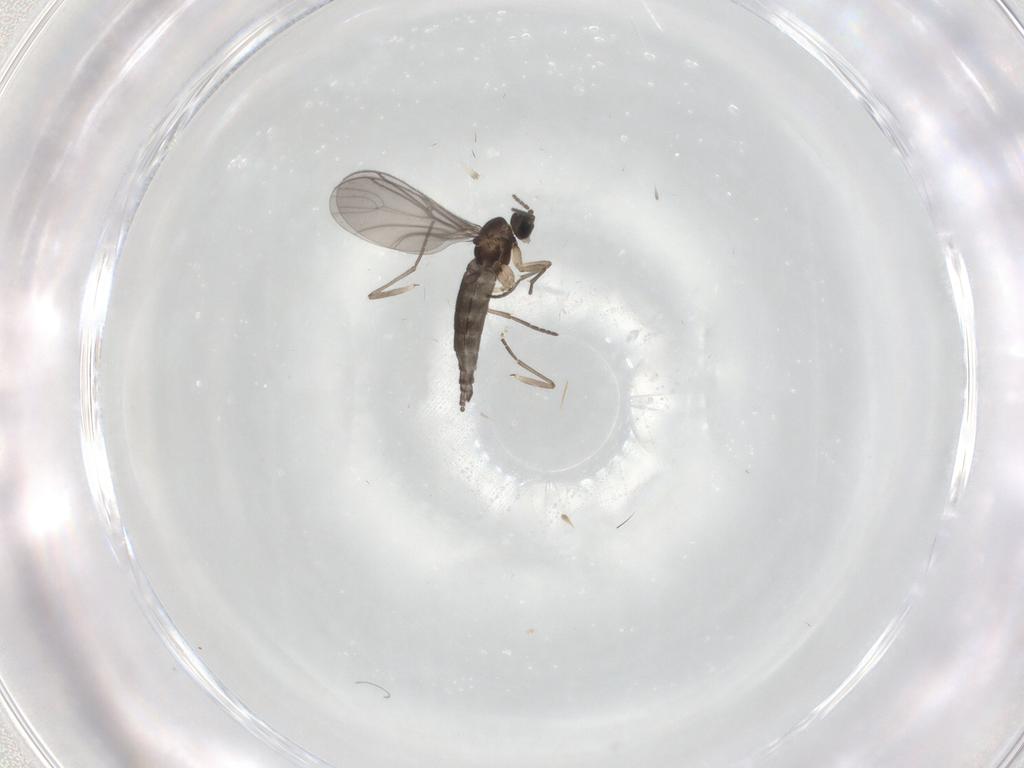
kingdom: Animalia
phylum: Arthropoda
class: Insecta
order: Diptera
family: Sciaridae
